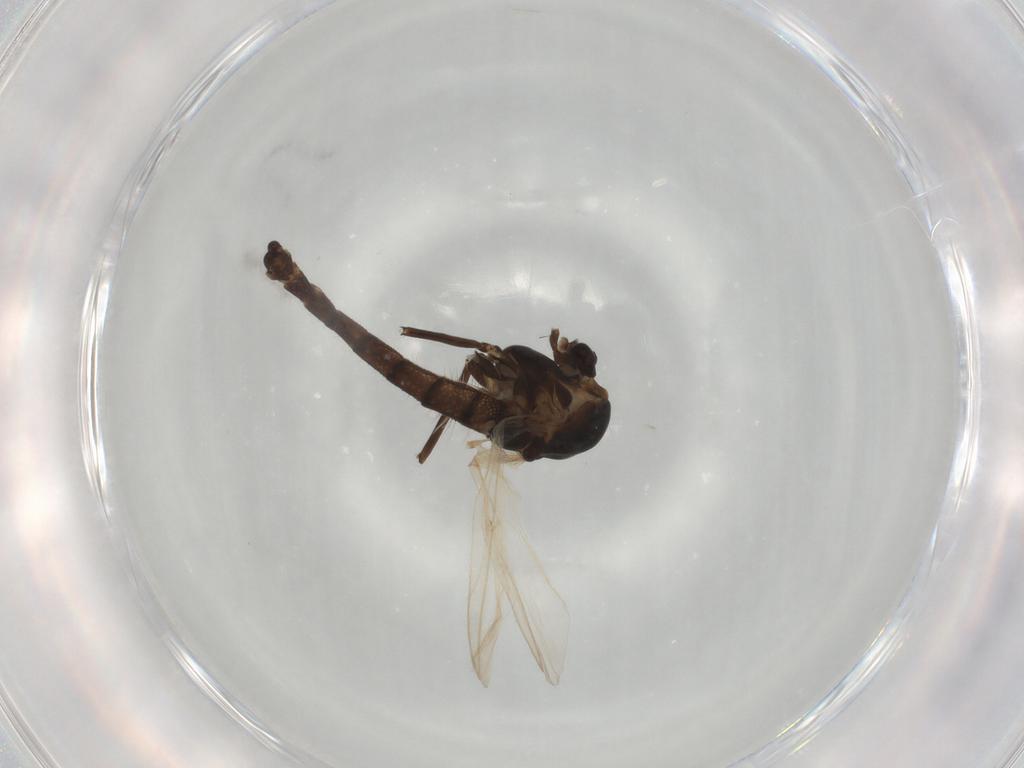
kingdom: Animalia
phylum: Arthropoda
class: Insecta
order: Diptera
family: Chironomidae
